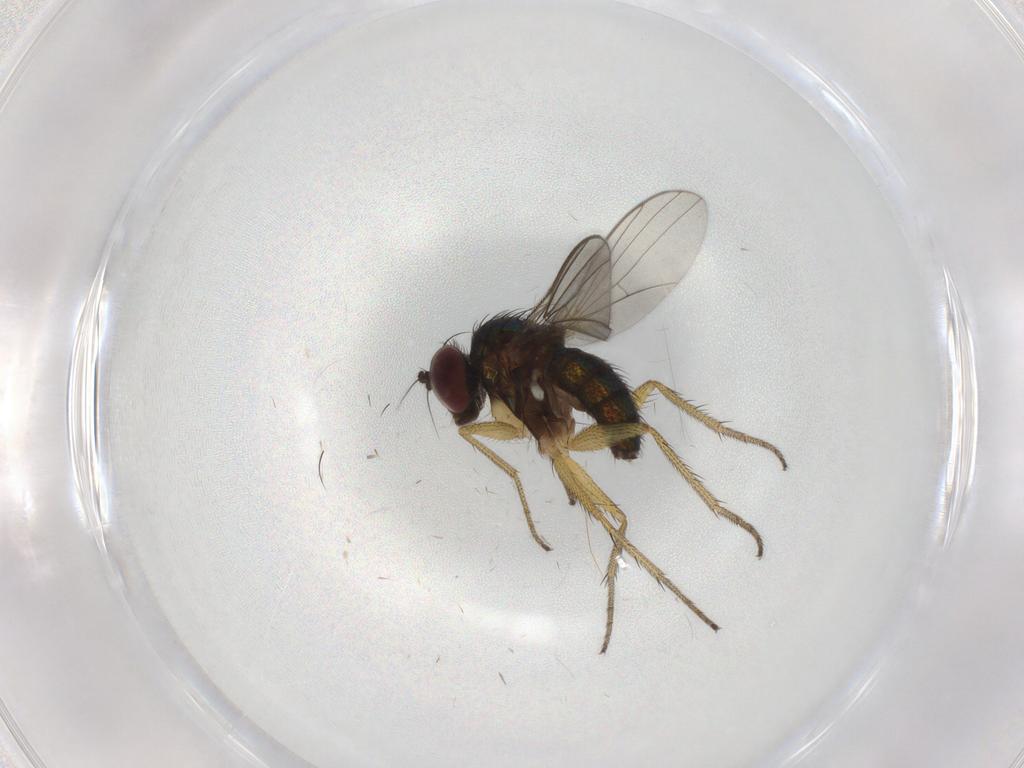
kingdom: Animalia
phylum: Arthropoda
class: Insecta
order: Diptera
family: Dolichopodidae
